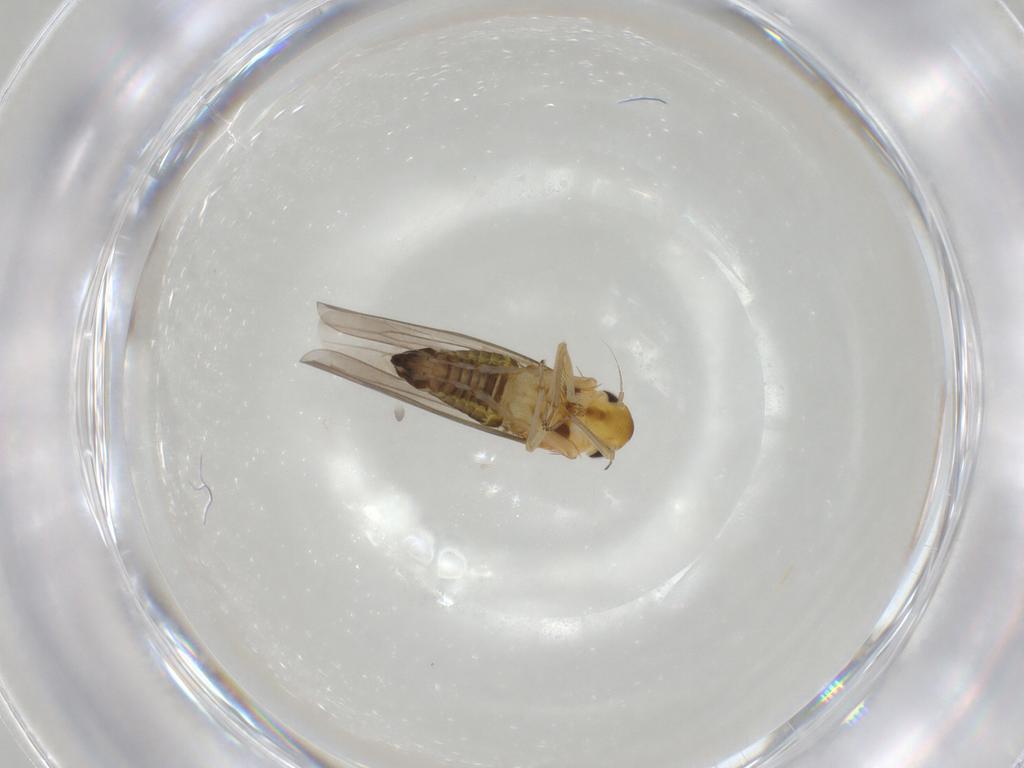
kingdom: Animalia
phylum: Arthropoda
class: Insecta
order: Hemiptera
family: Cicadellidae
